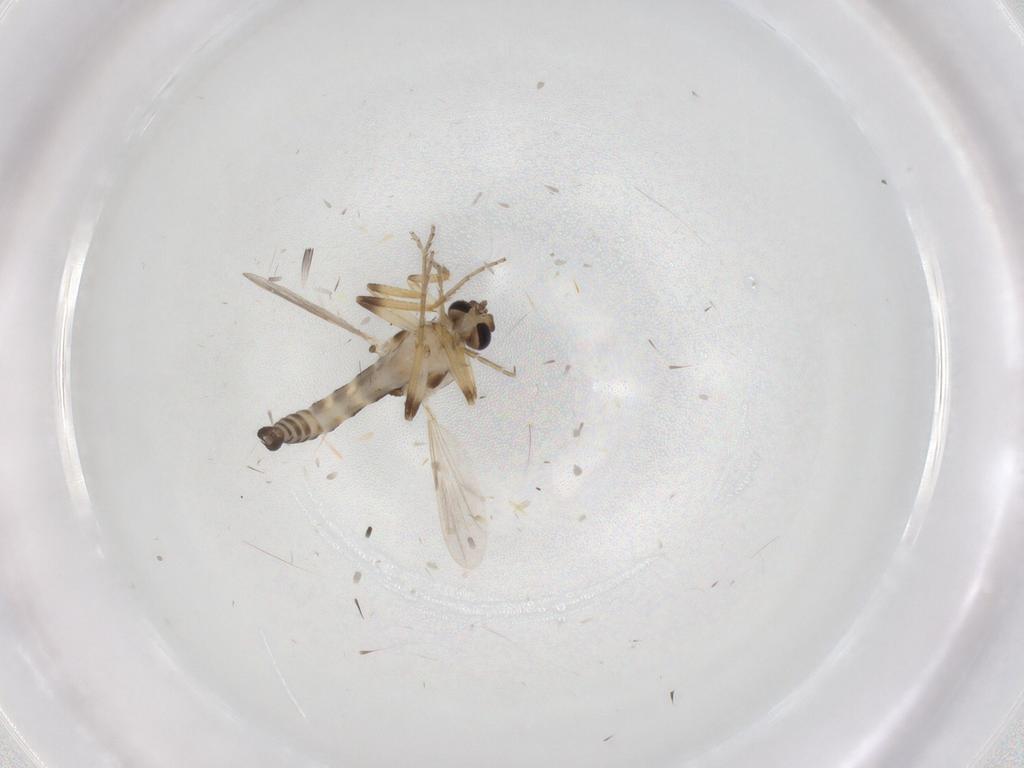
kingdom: Animalia
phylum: Arthropoda
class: Insecta
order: Diptera
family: Ceratopogonidae
